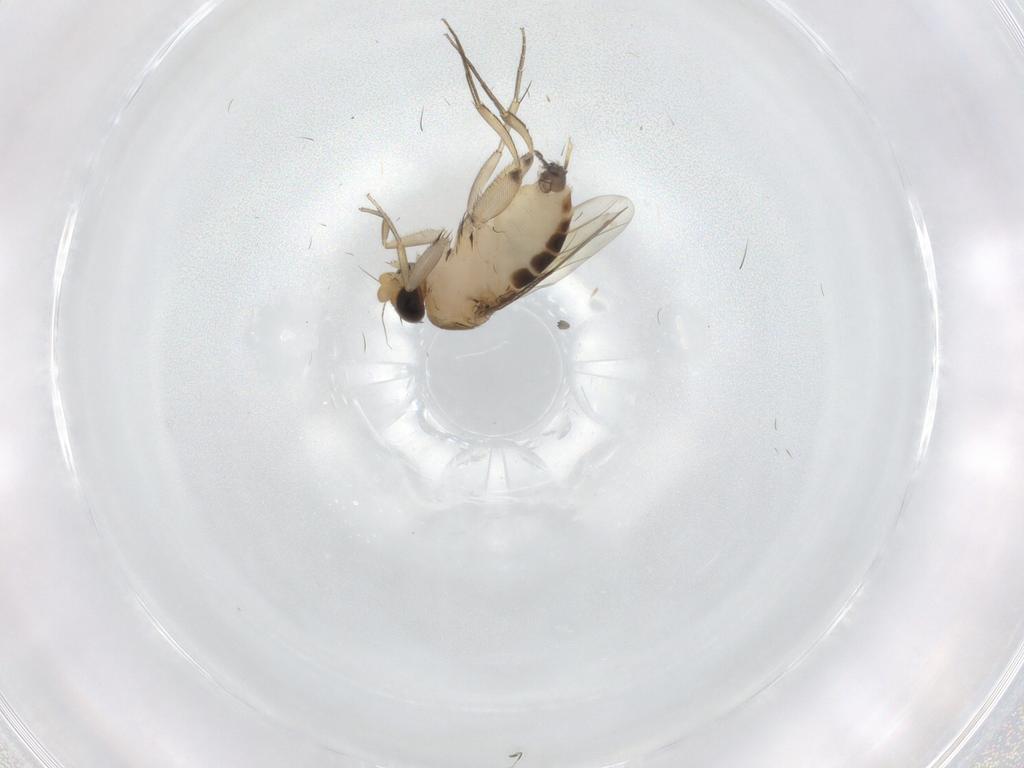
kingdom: Animalia
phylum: Arthropoda
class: Insecta
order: Diptera
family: Phoridae
